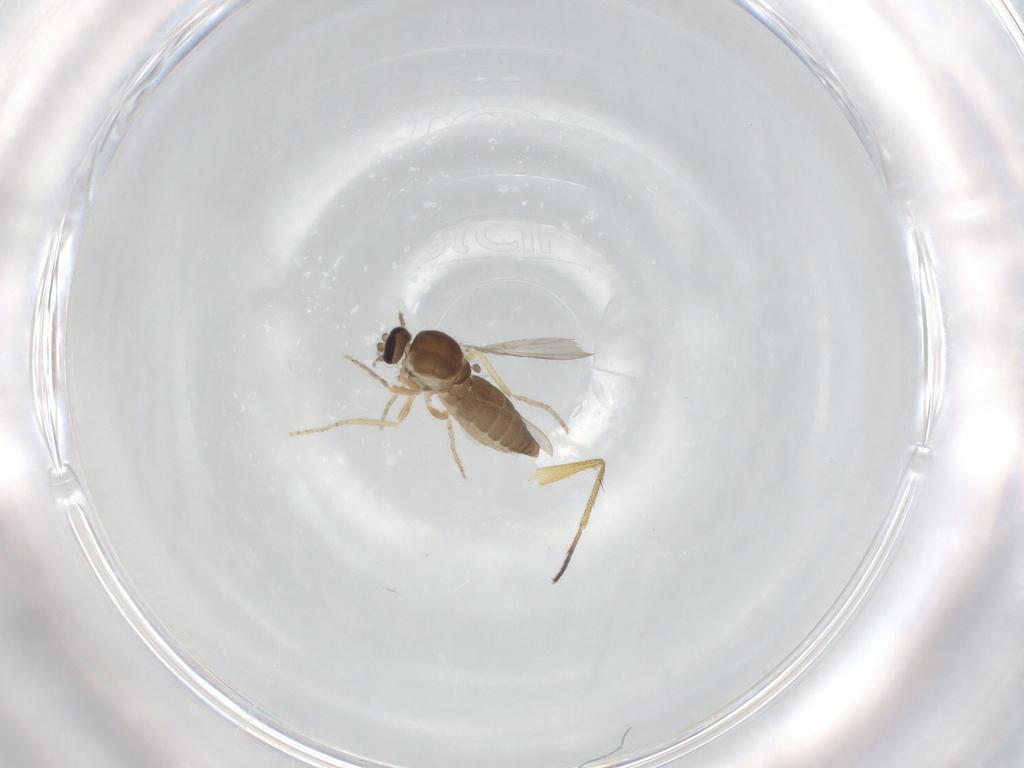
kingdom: Animalia
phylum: Arthropoda
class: Insecta
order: Diptera
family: Ceratopogonidae
